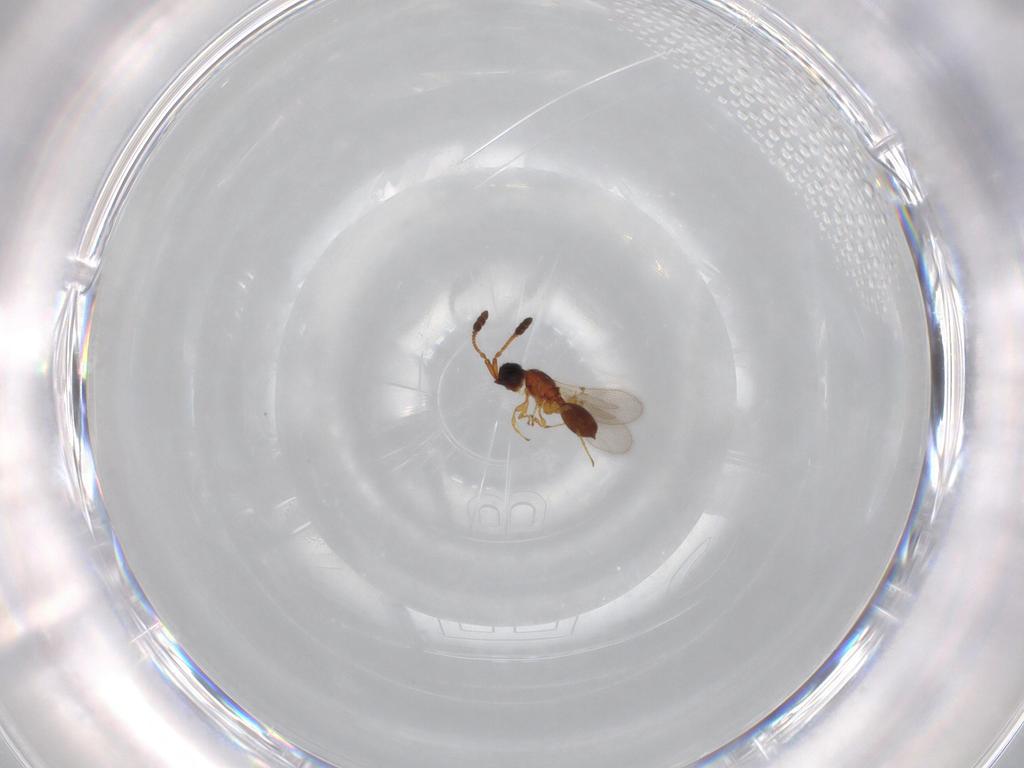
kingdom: Animalia
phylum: Arthropoda
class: Insecta
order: Hymenoptera
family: Diapriidae
